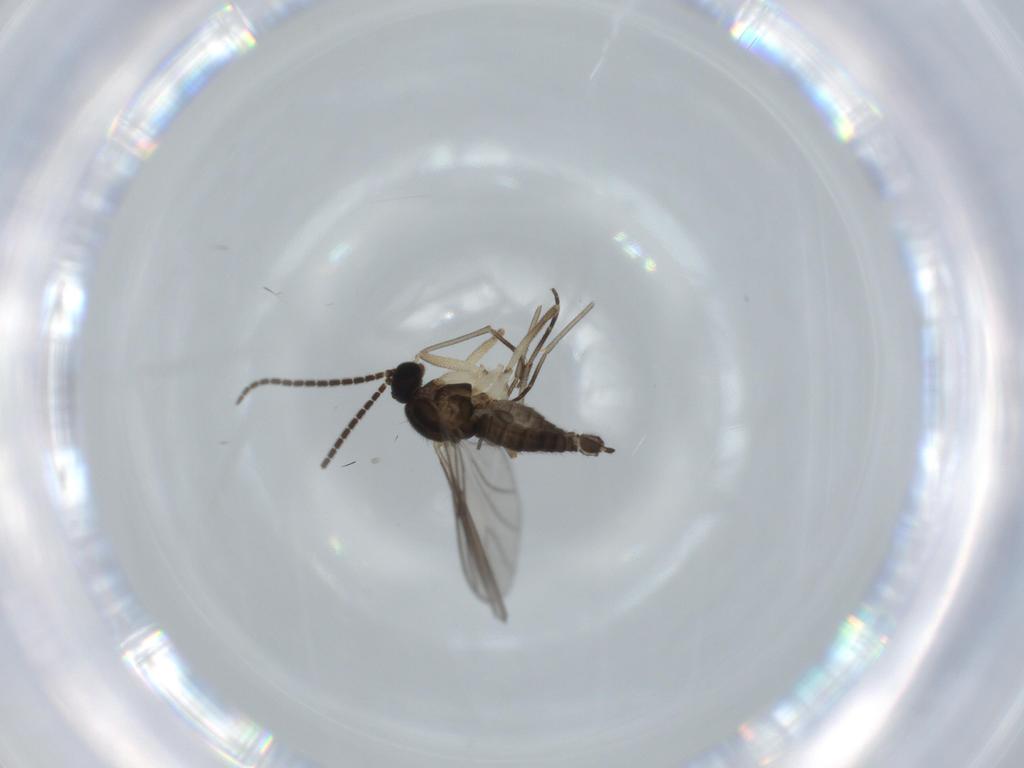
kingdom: Animalia
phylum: Arthropoda
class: Insecta
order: Diptera
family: Sciaridae
